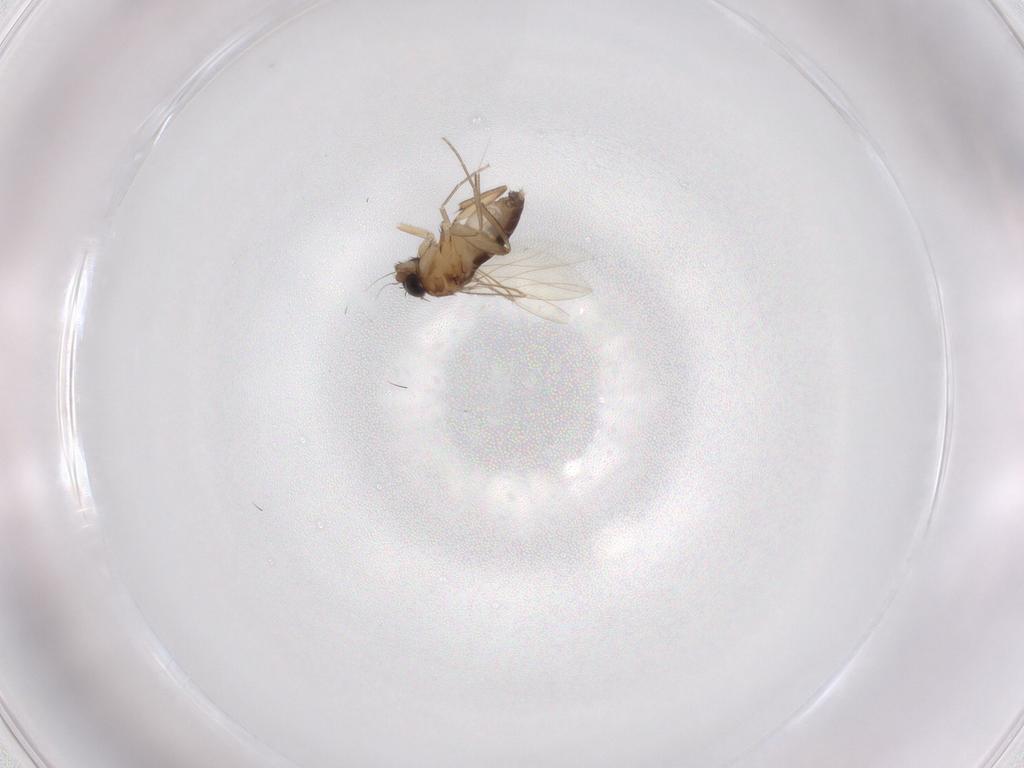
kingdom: Animalia
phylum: Arthropoda
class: Insecta
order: Diptera
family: Phoridae
